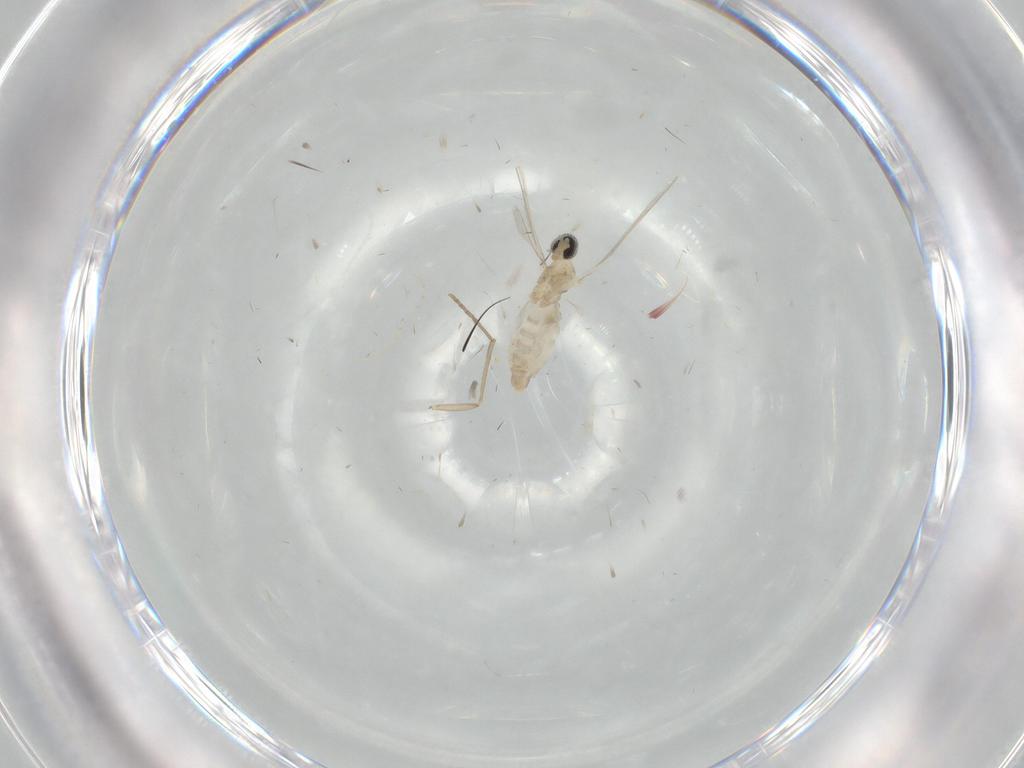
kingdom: Animalia
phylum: Arthropoda
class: Insecta
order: Diptera
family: Cecidomyiidae
